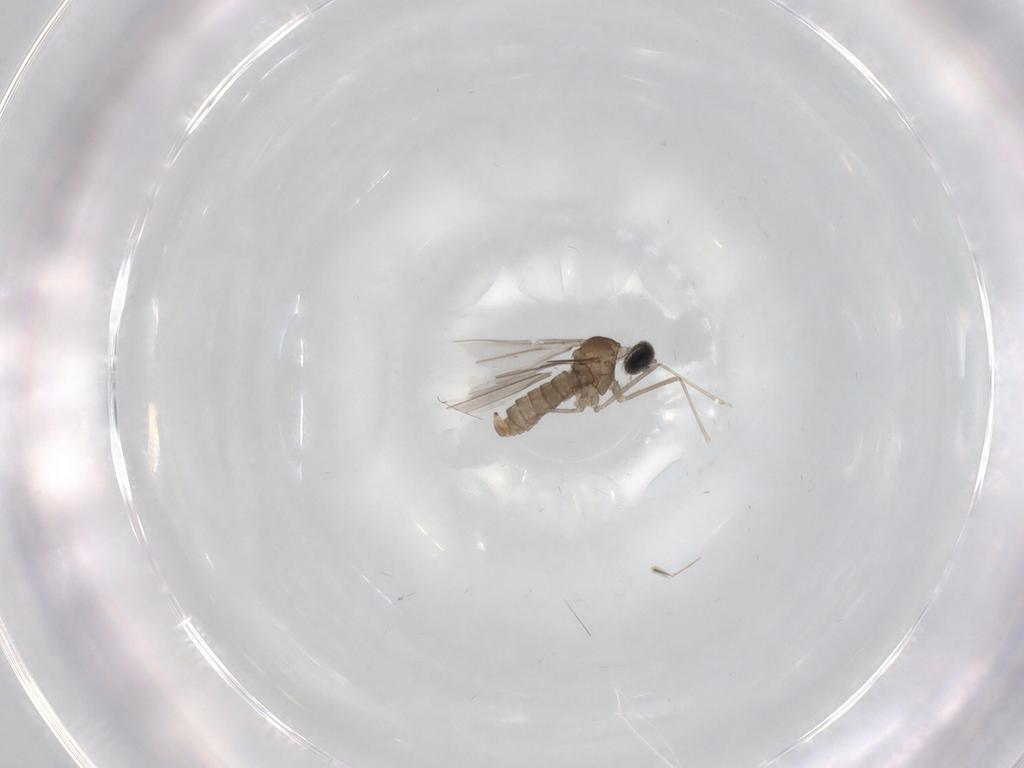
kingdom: Animalia
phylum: Arthropoda
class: Insecta
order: Diptera
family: Cecidomyiidae
